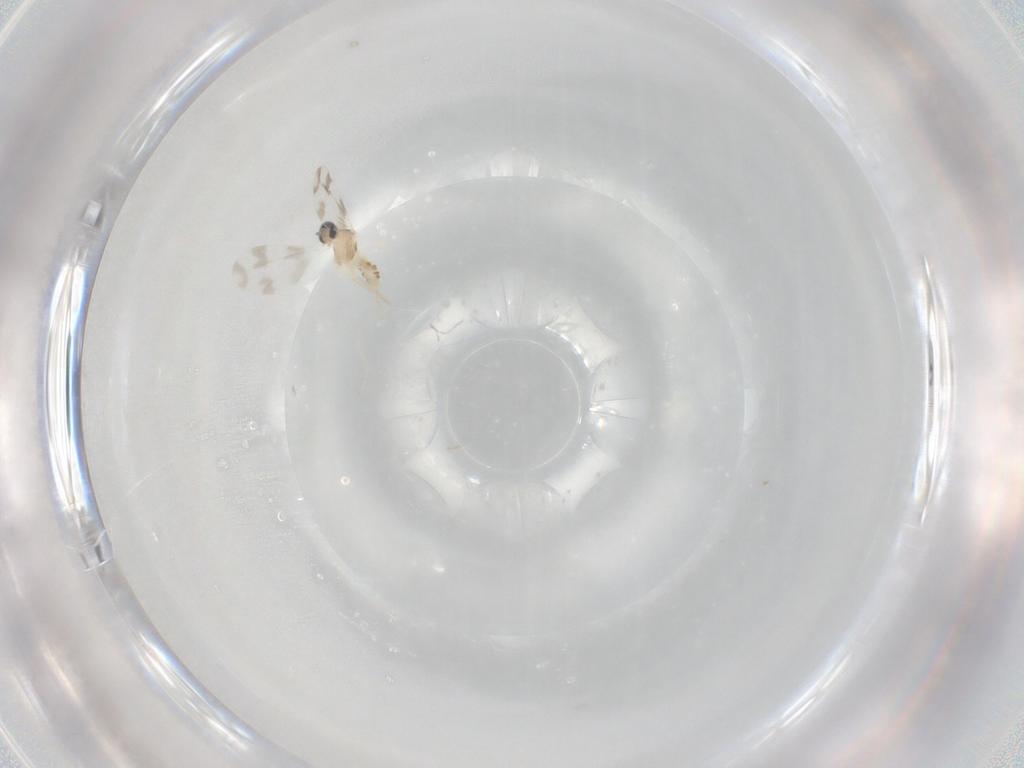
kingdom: Animalia
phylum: Arthropoda
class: Insecta
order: Diptera
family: Cecidomyiidae
